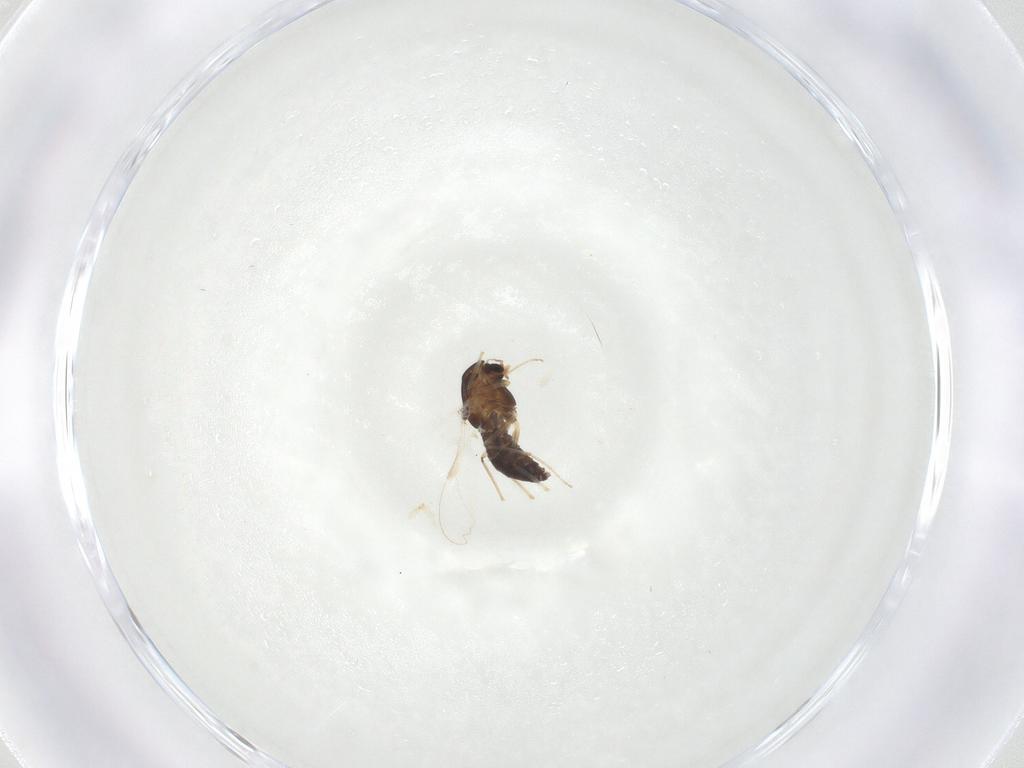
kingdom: Animalia
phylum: Arthropoda
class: Insecta
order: Diptera
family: Chironomidae
